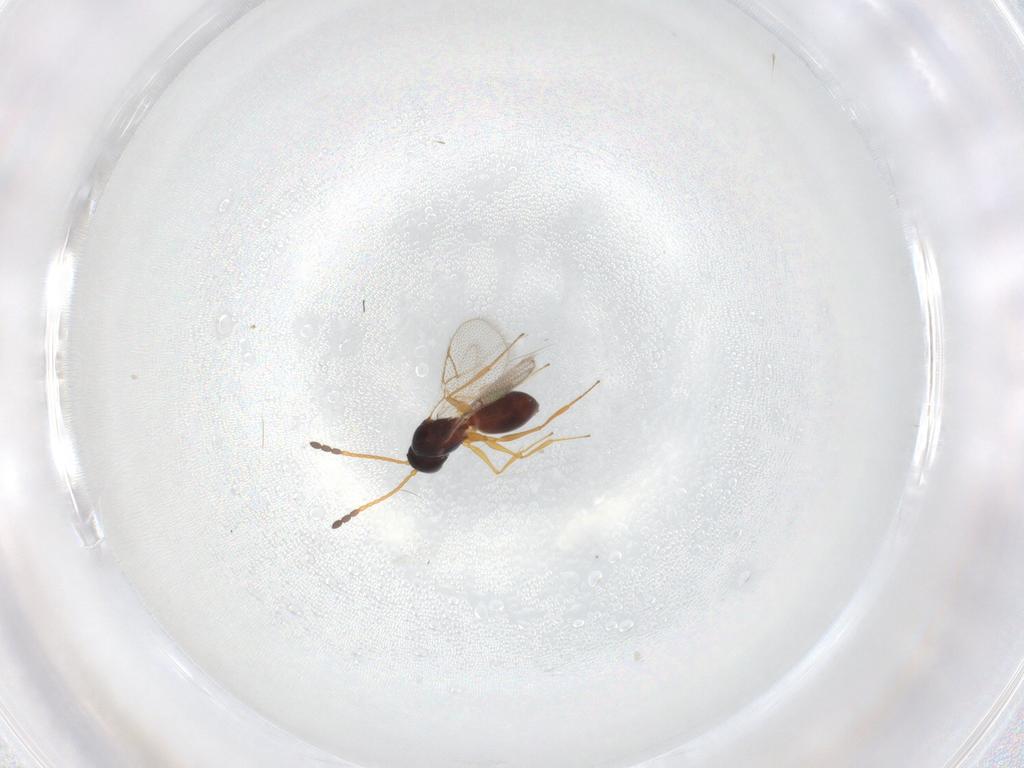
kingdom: Animalia
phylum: Arthropoda
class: Insecta
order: Hymenoptera
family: Figitidae
